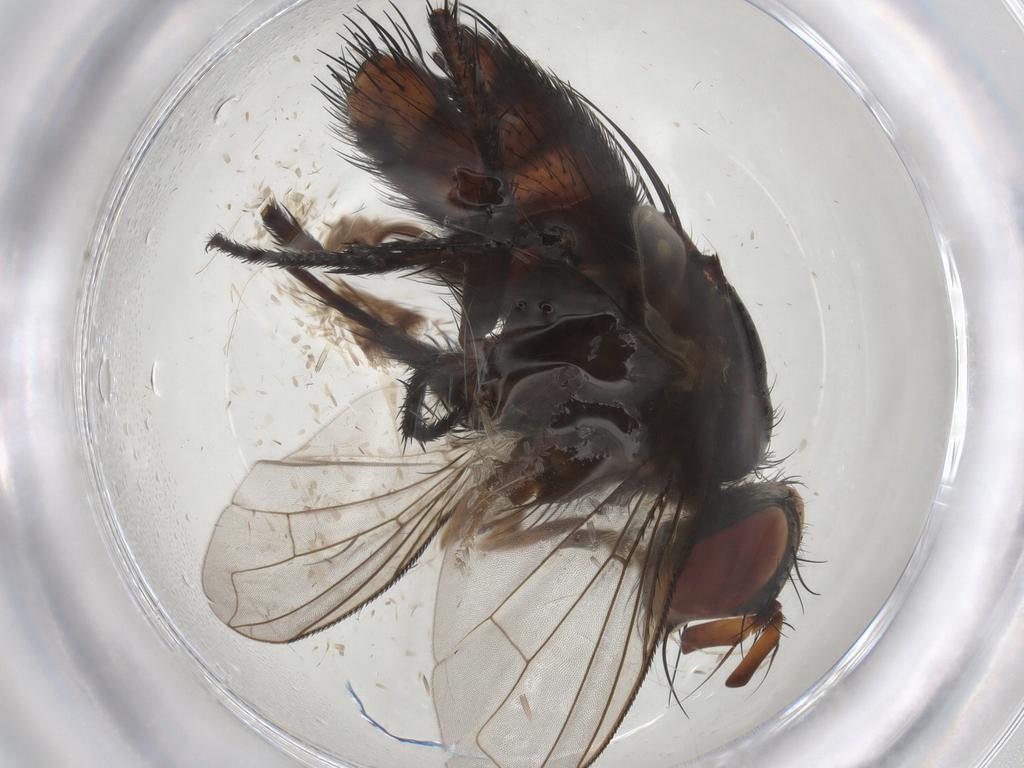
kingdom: Animalia
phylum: Arthropoda
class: Insecta
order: Diptera
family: Tachinidae
